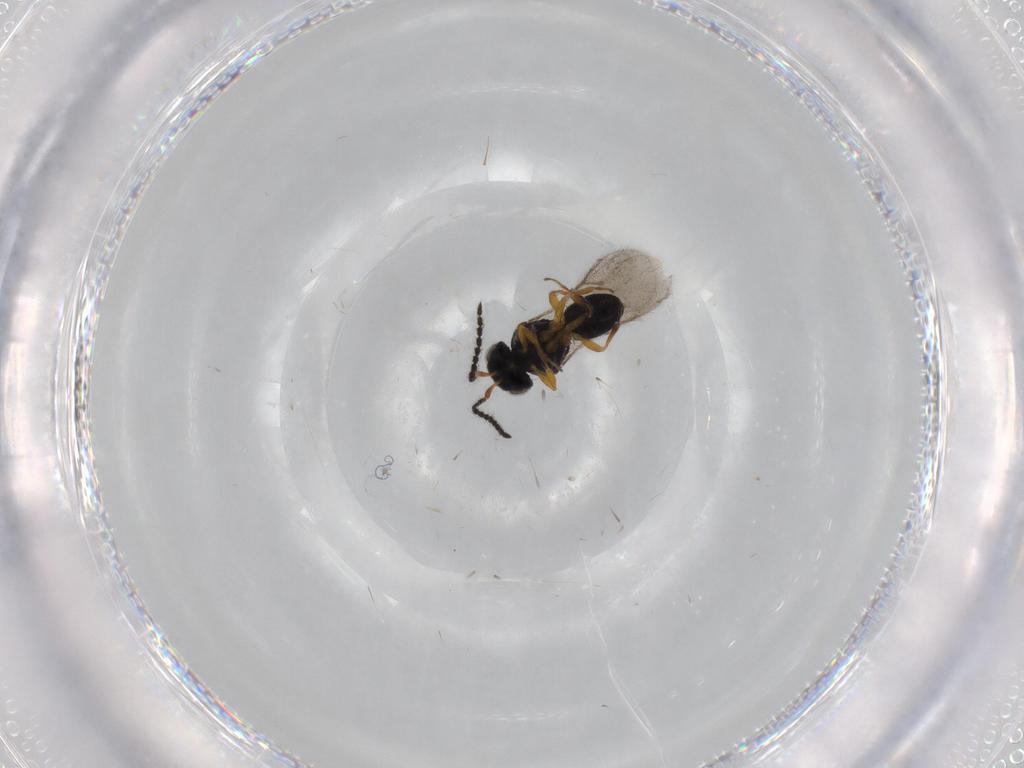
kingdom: Animalia
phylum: Arthropoda
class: Insecta
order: Hymenoptera
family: Scelionidae
